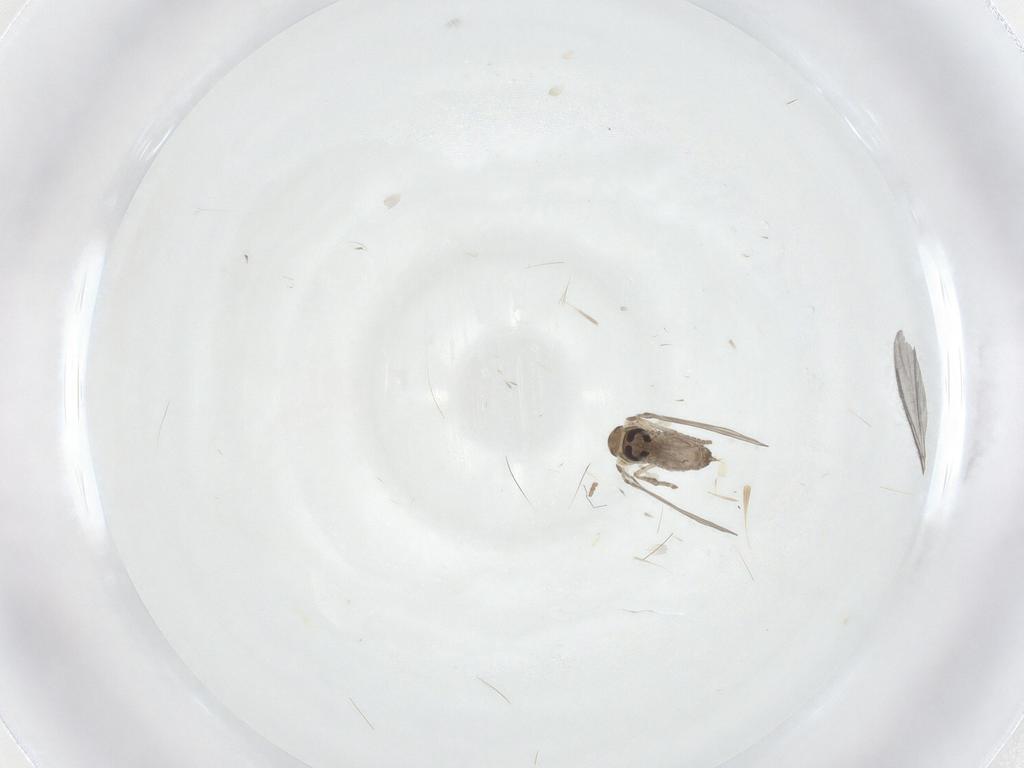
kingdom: Animalia
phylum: Arthropoda
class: Insecta
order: Diptera
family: Psychodidae
